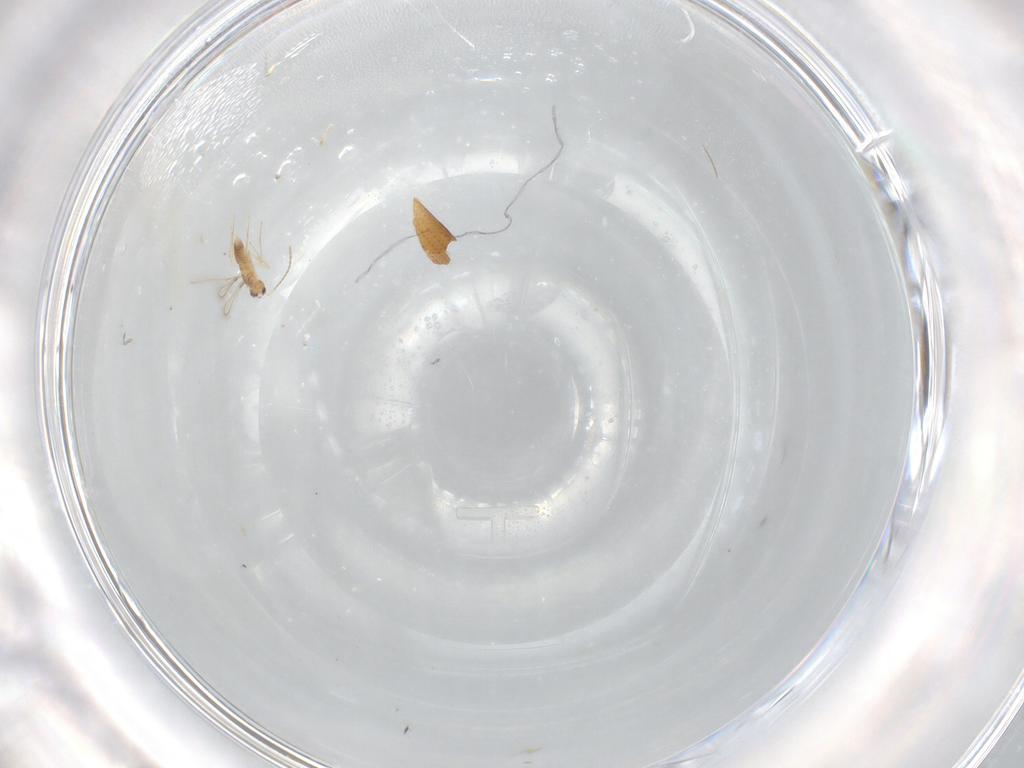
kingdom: Animalia
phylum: Arthropoda
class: Insecta
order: Hymenoptera
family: Mymaridae
